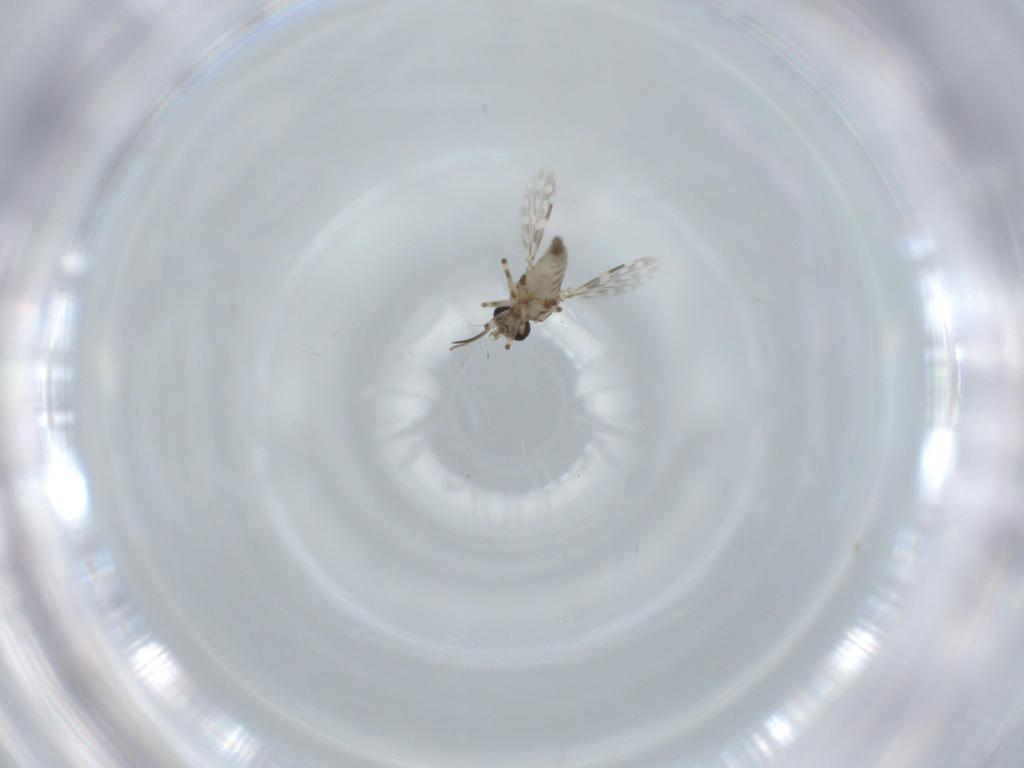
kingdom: Animalia
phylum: Arthropoda
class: Insecta
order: Diptera
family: Ceratopogonidae
